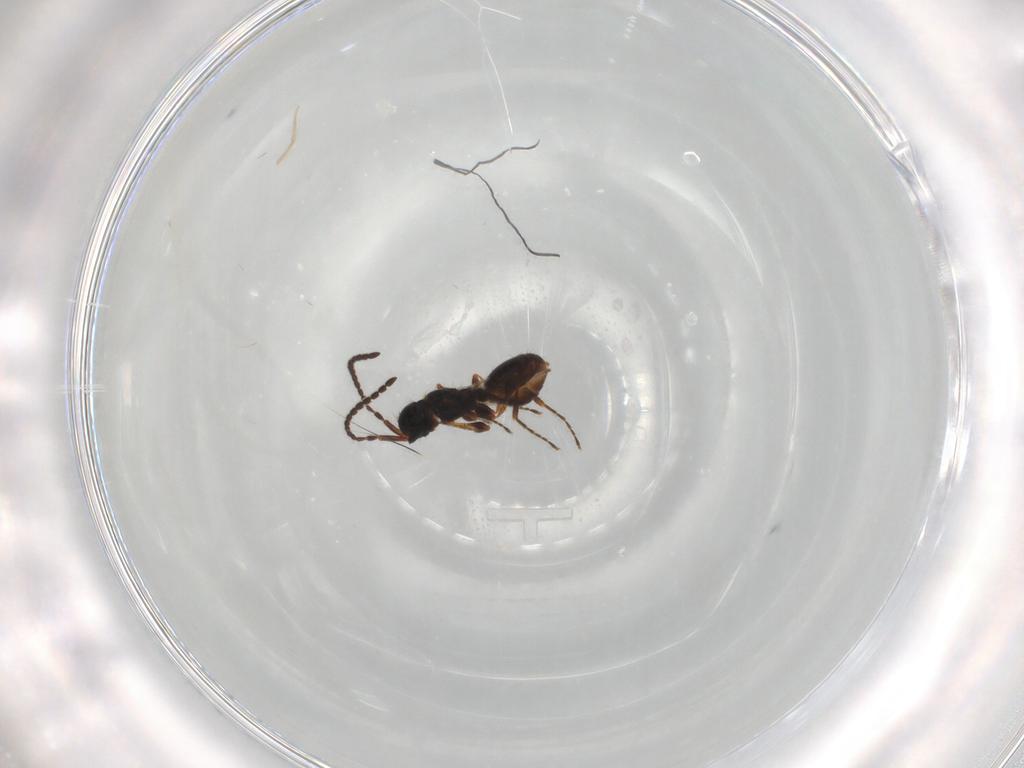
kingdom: Animalia
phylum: Arthropoda
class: Insecta
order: Hymenoptera
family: Diapriidae
